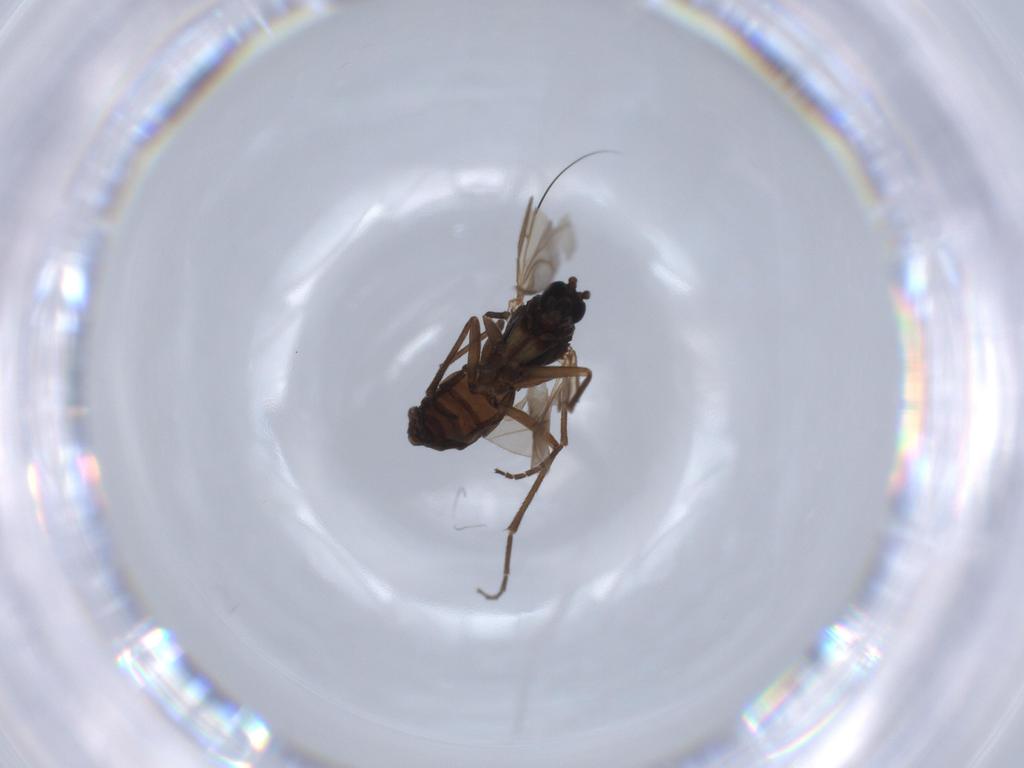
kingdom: Animalia
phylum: Arthropoda
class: Insecta
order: Diptera
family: Sciaridae
